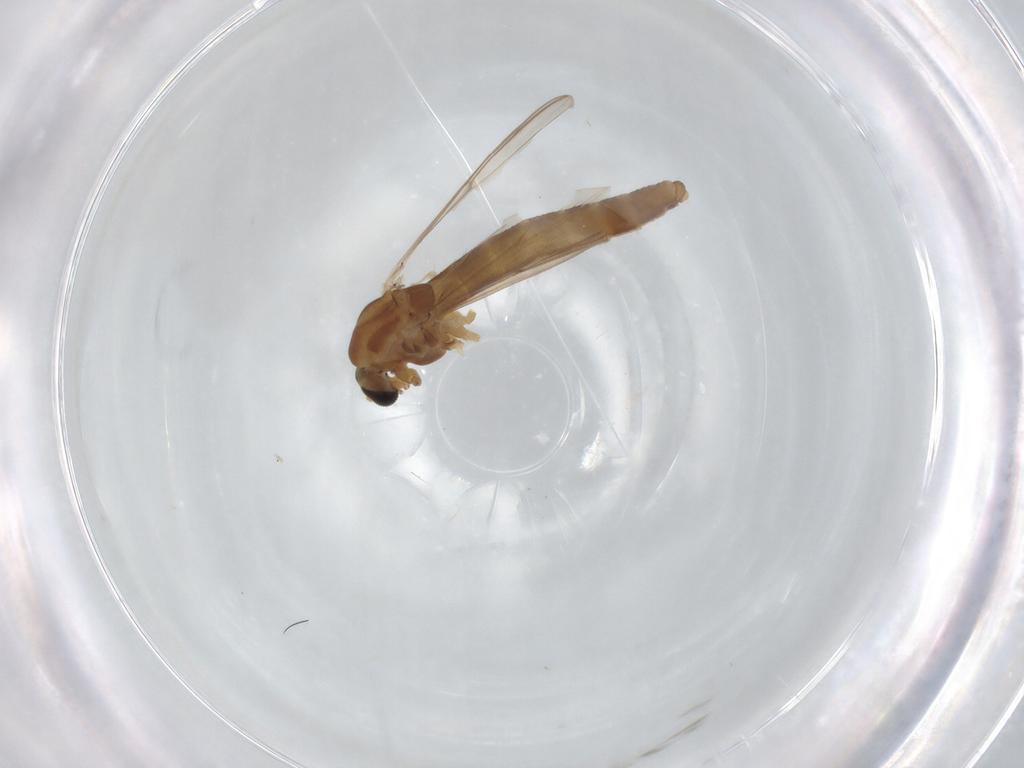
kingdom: Animalia
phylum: Arthropoda
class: Insecta
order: Diptera
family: Chironomidae
